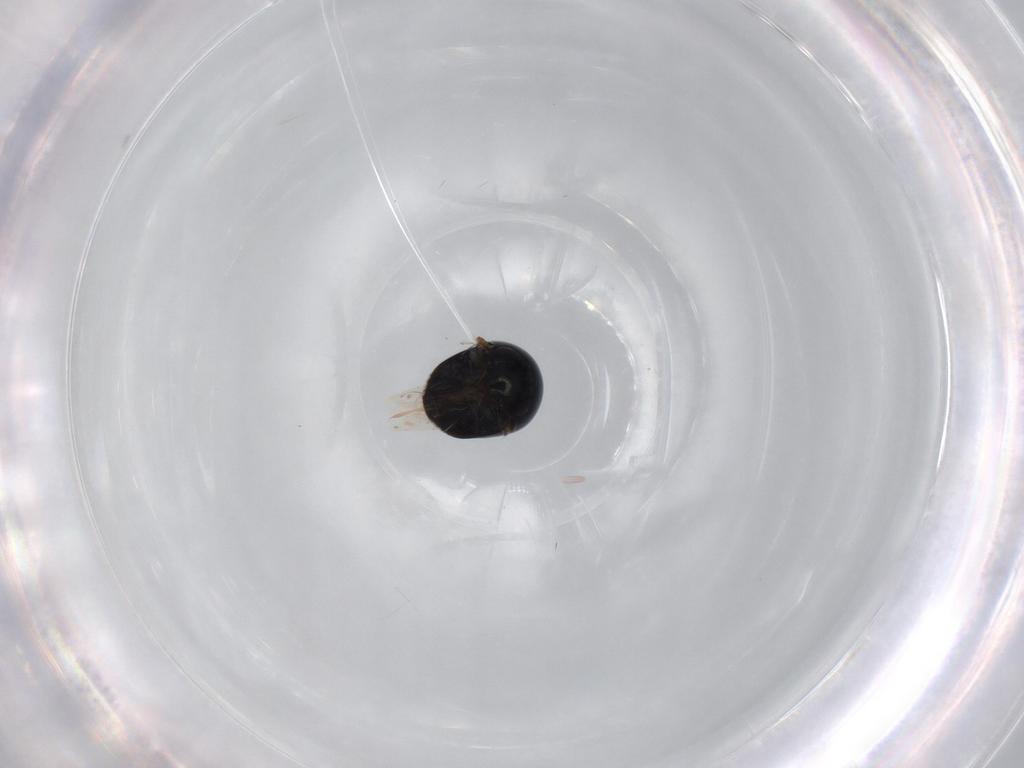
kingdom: Animalia
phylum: Arthropoda
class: Insecta
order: Coleoptera
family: Cybocephalidae
